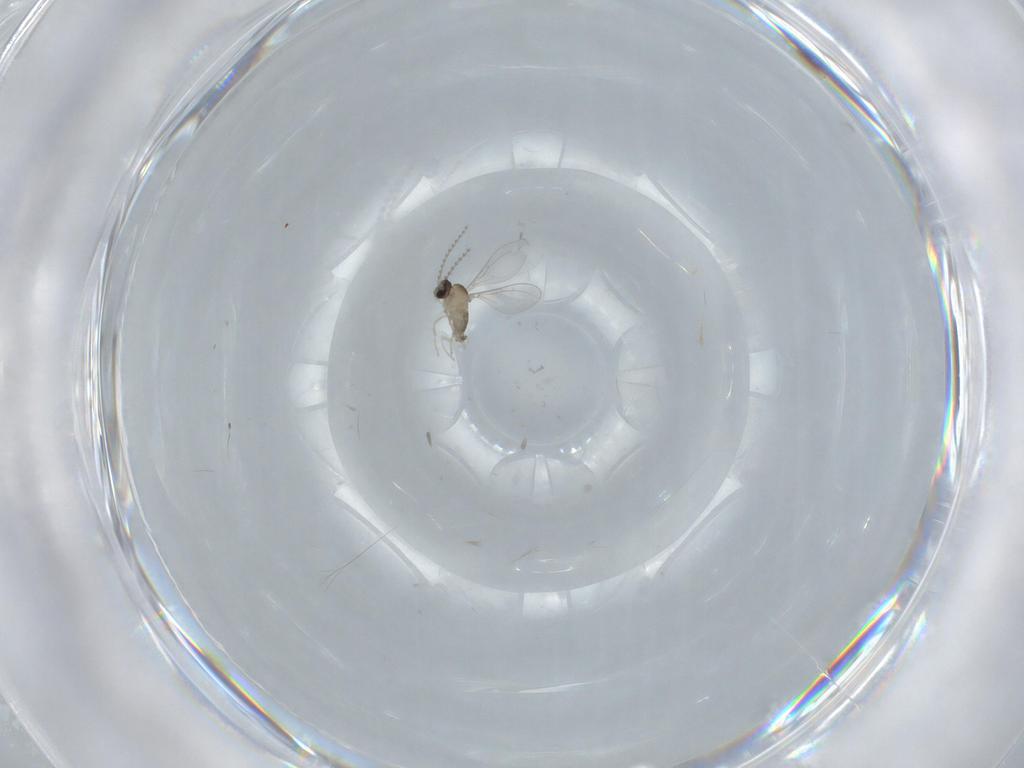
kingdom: Animalia
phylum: Arthropoda
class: Insecta
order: Diptera
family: Cecidomyiidae
